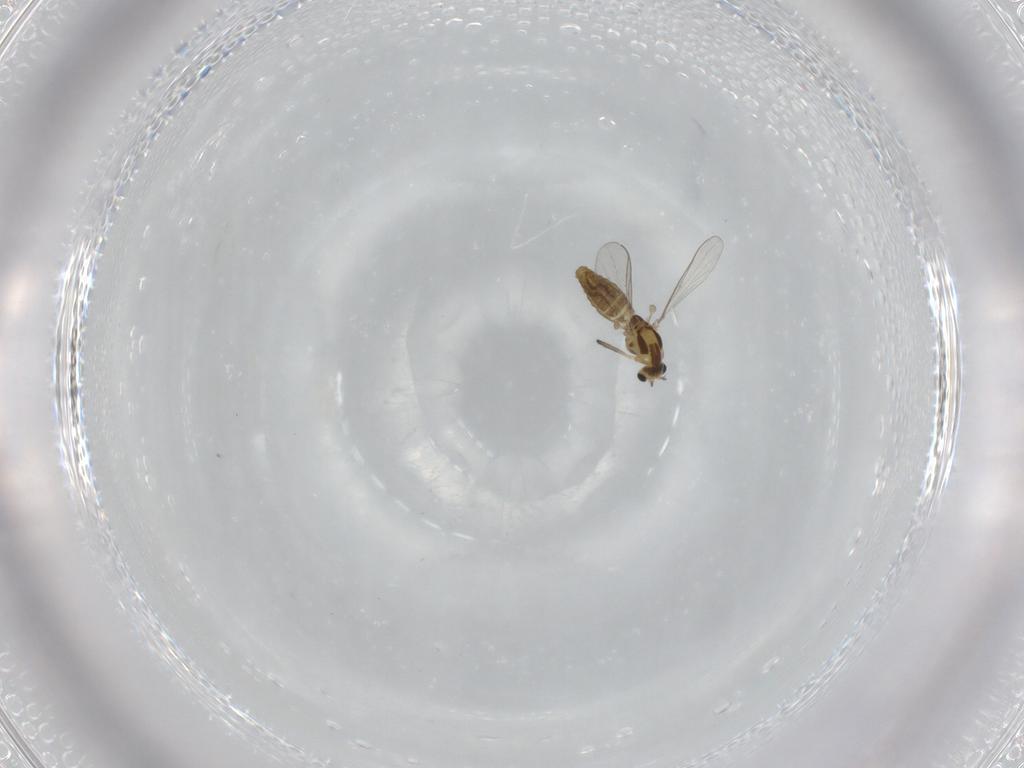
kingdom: Animalia
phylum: Arthropoda
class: Insecta
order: Diptera
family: Chironomidae
